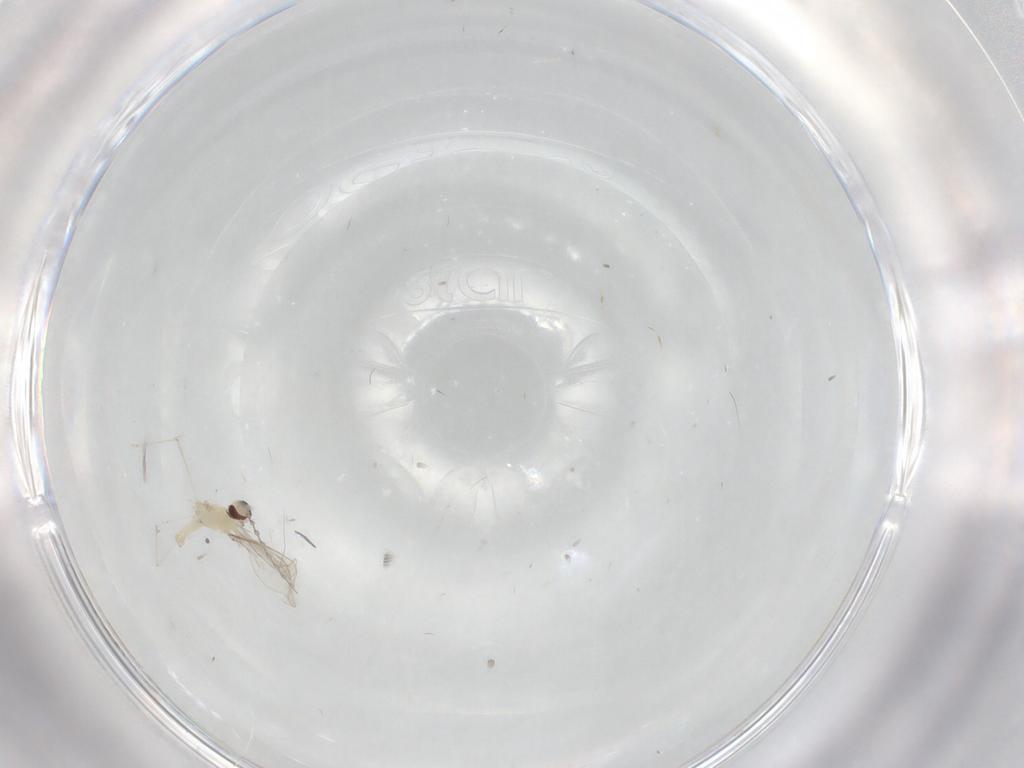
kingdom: Animalia
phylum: Arthropoda
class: Insecta
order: Diptera
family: Cecidomyiidae
